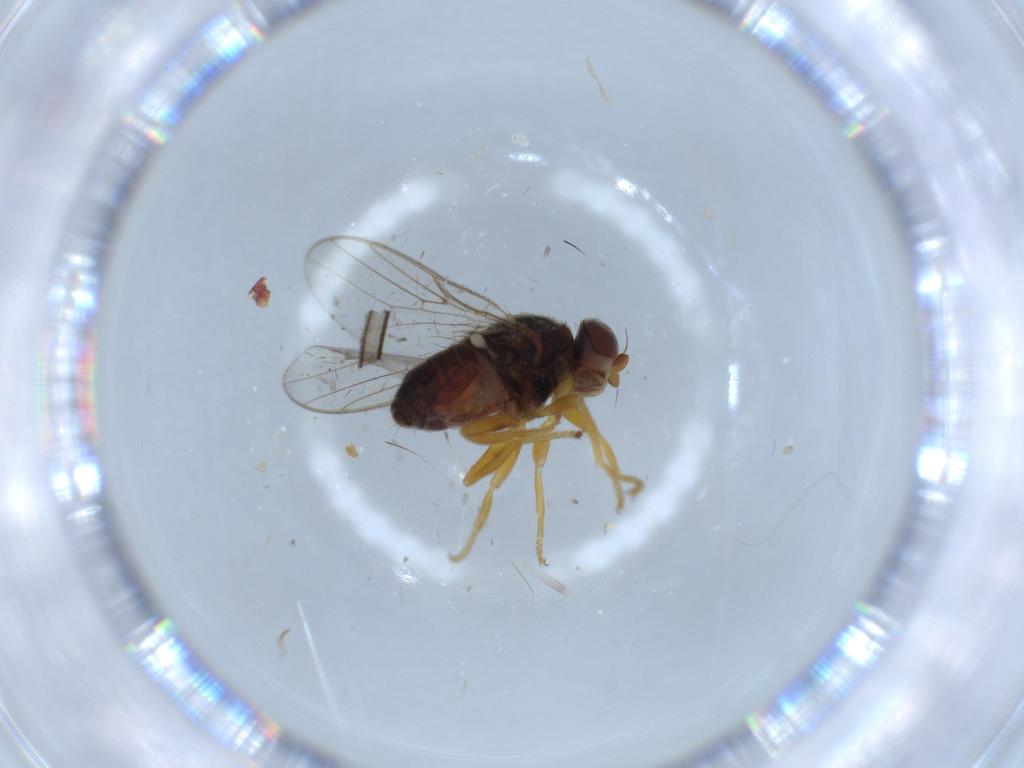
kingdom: Animalia
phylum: Arthropoda
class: Insecta
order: Diptera
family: Chloropidae
